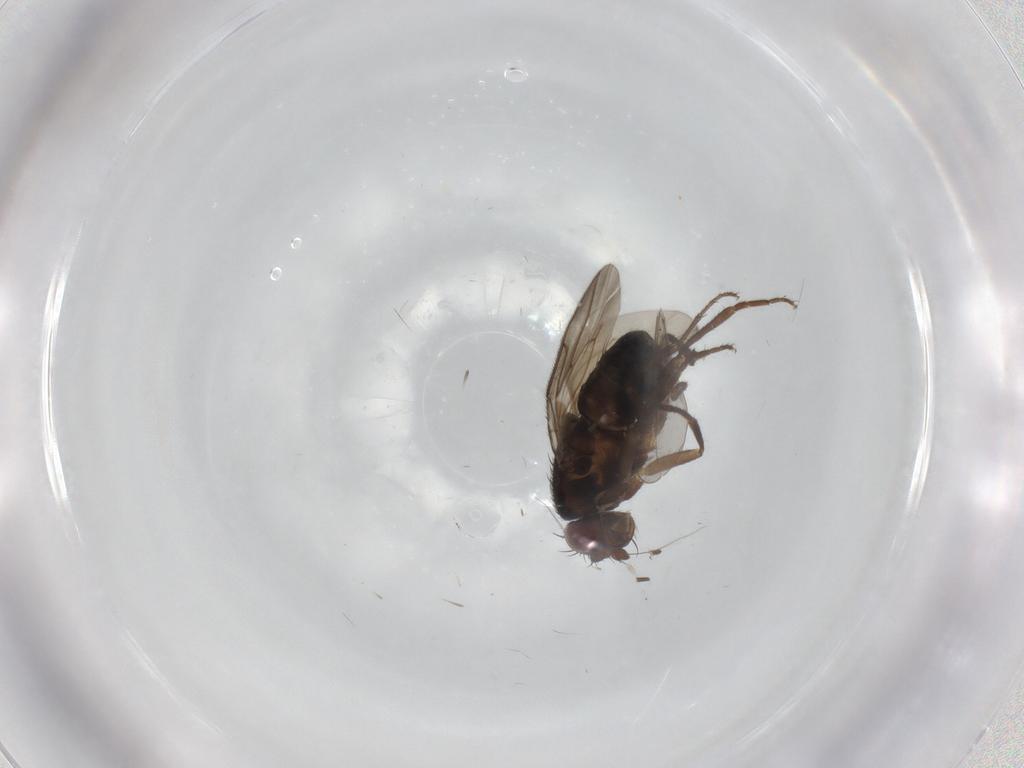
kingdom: Animalia
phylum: Arthropoda
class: Insecta
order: Diptera
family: Sphaeroceridae
